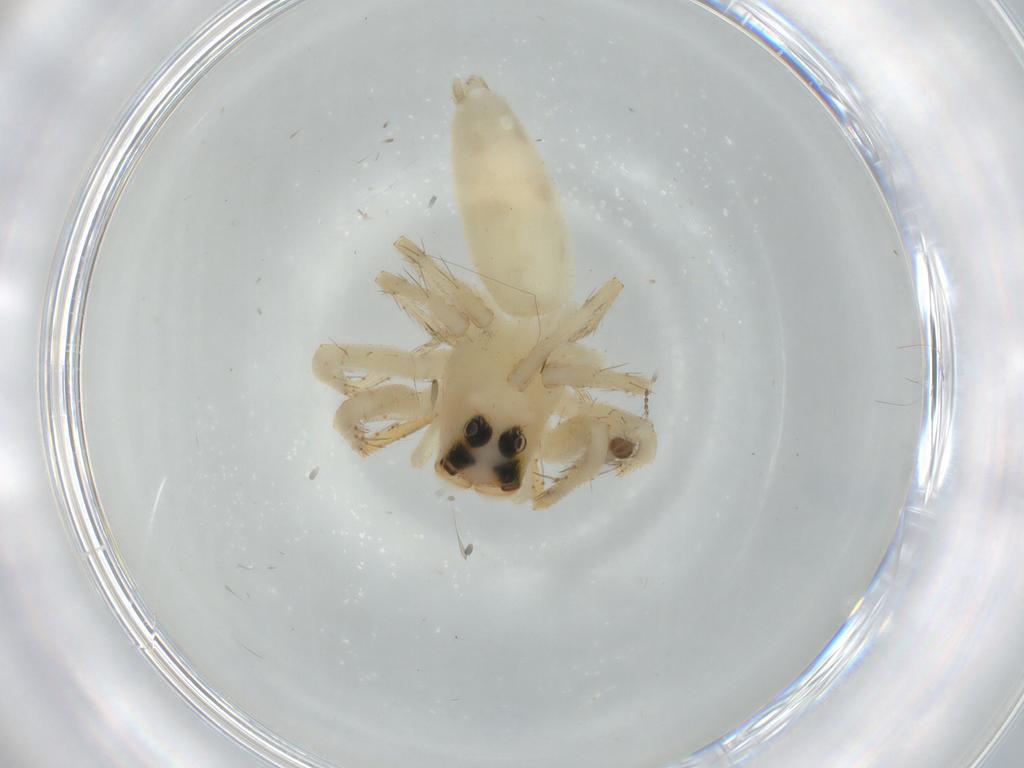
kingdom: Animalia
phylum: Arthropoda
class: Arachnida
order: Araneae
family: Salticidae
